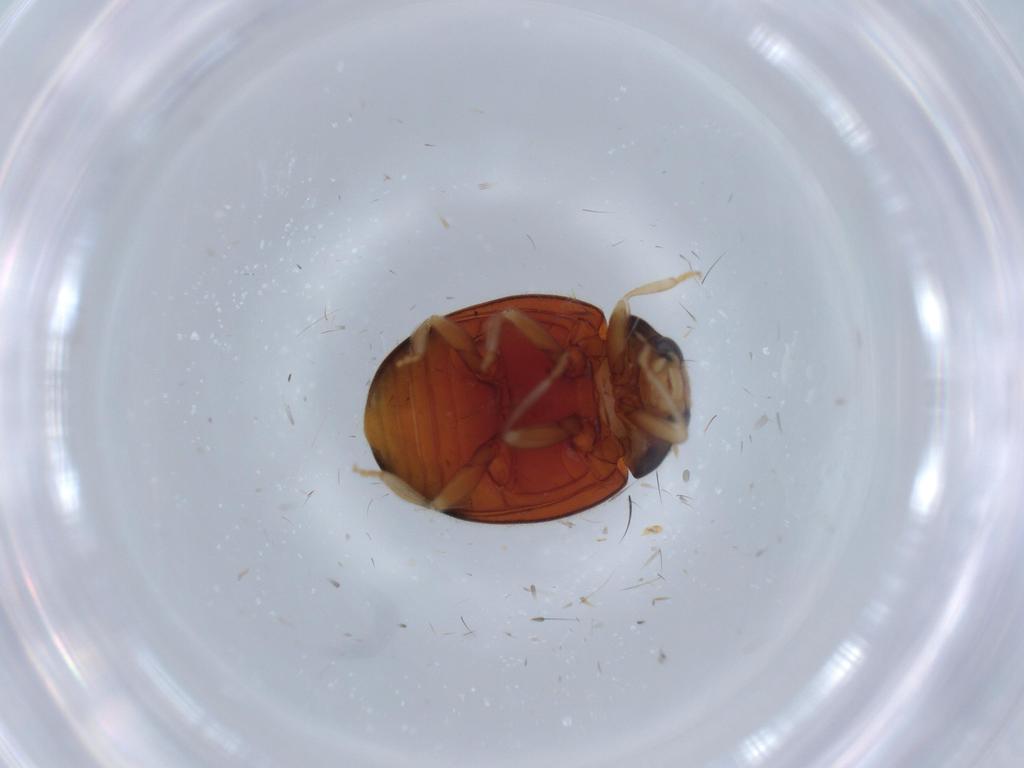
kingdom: Animalia
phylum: Arthropoda
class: Insecta
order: Coleoptera
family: Coccinellidae
